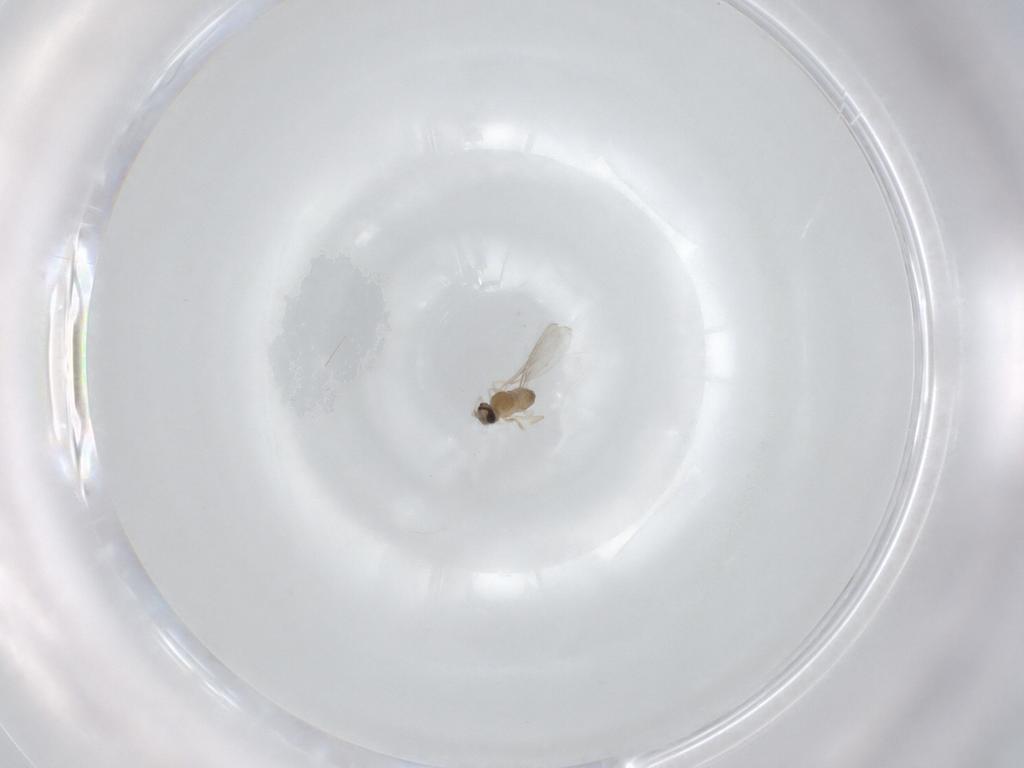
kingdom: Animalia
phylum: Arthropoda
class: Insecta
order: Diptera
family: Cecidomyiidae
